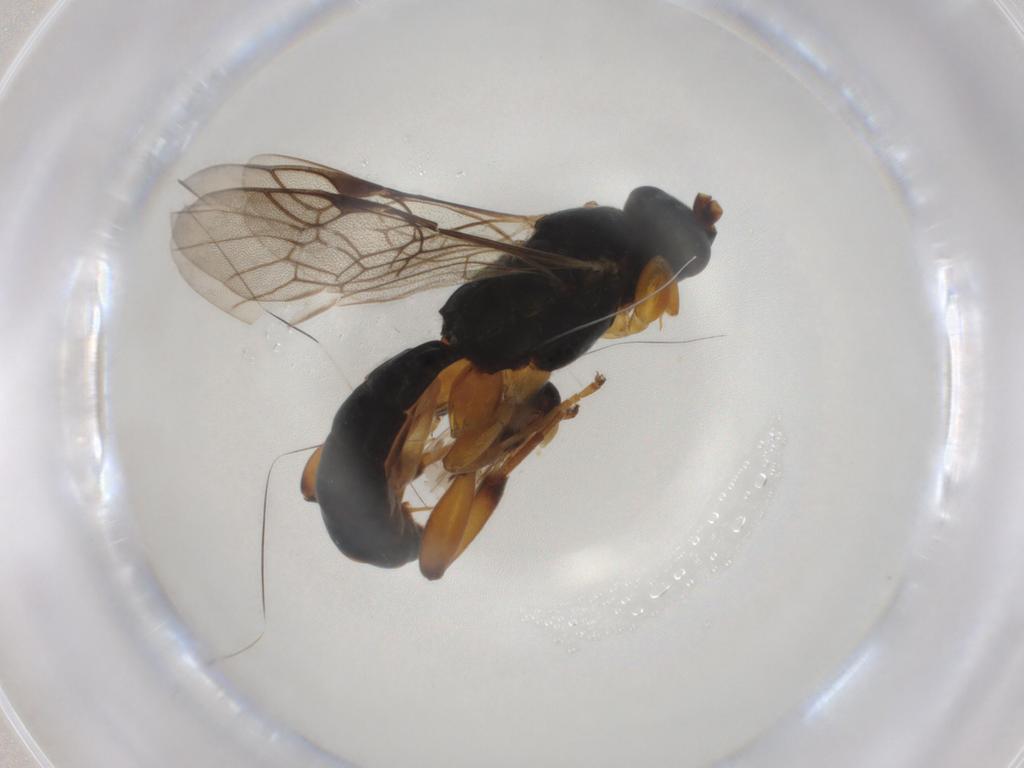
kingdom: Animalia
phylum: Arthropoda
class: Insecta
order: Hymenoptera
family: Ichneumonidae
